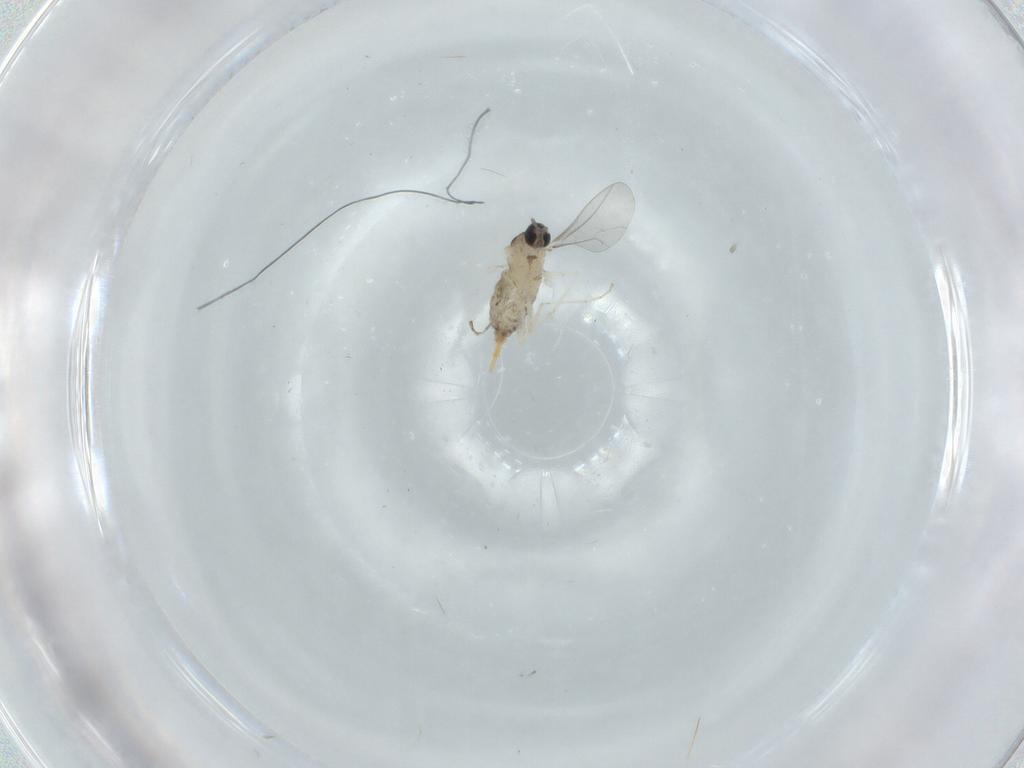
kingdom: Animalia
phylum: Arthropoda
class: Insecta
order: Diptera
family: Cecidomyiidae
